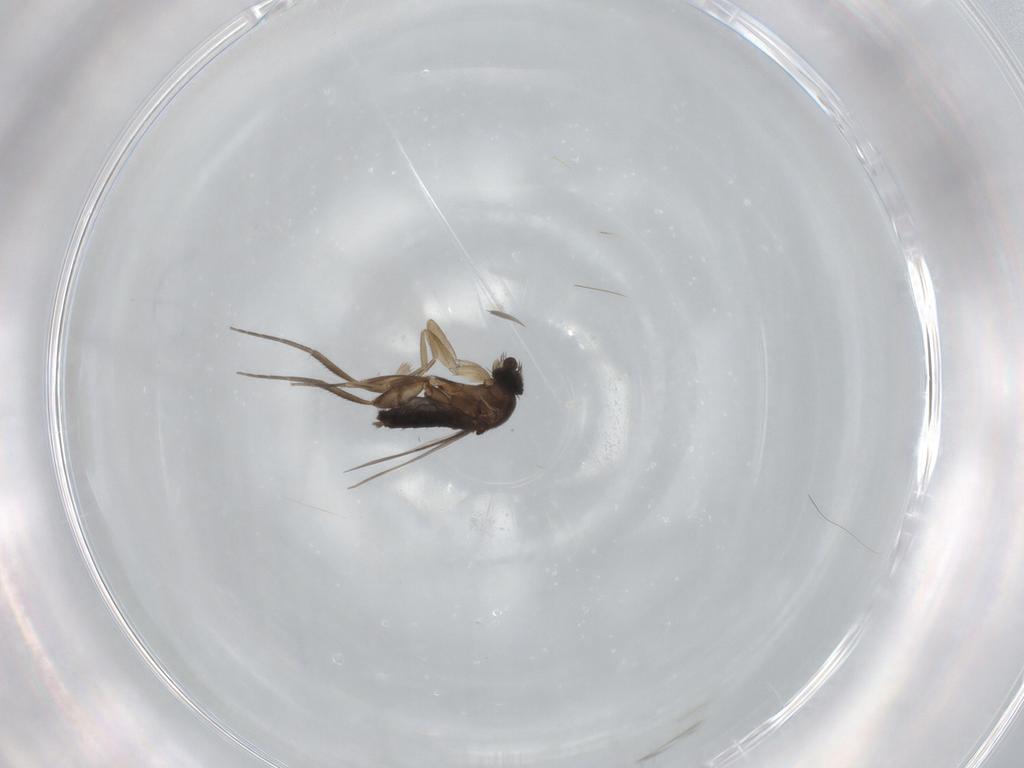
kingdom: Animalia
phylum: Arthropoda
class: Insecta
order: Diptera
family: Phoridae
